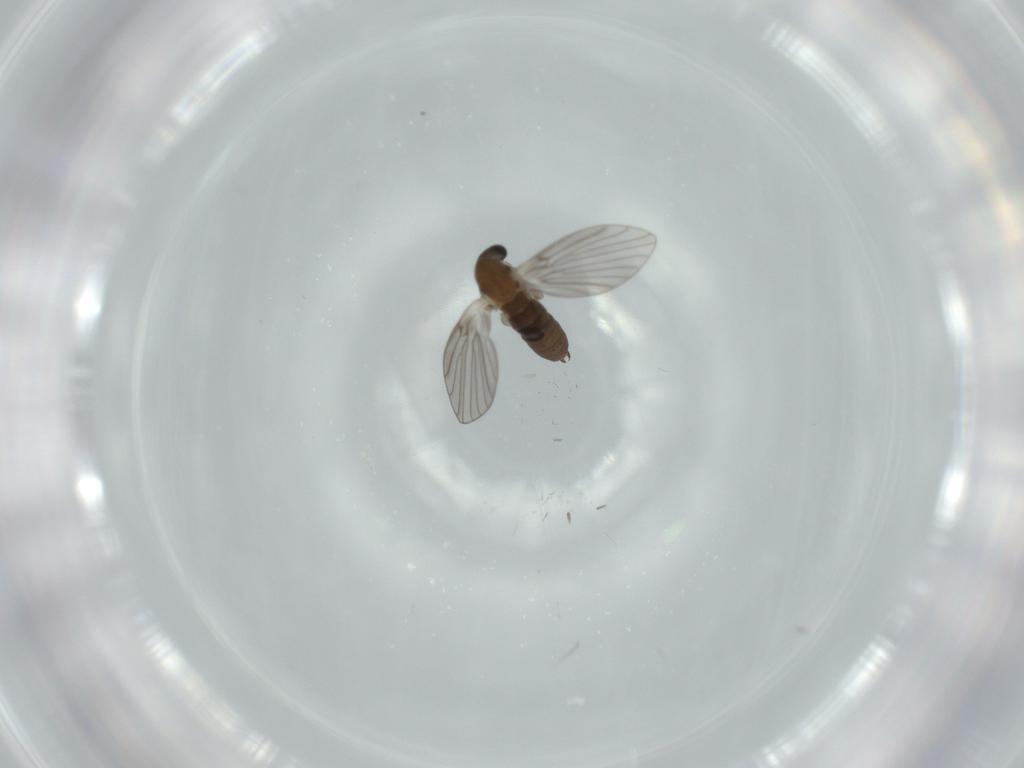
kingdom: Animalia
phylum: Arthropoda
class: Insecta
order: Diptera
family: Psychodidae
